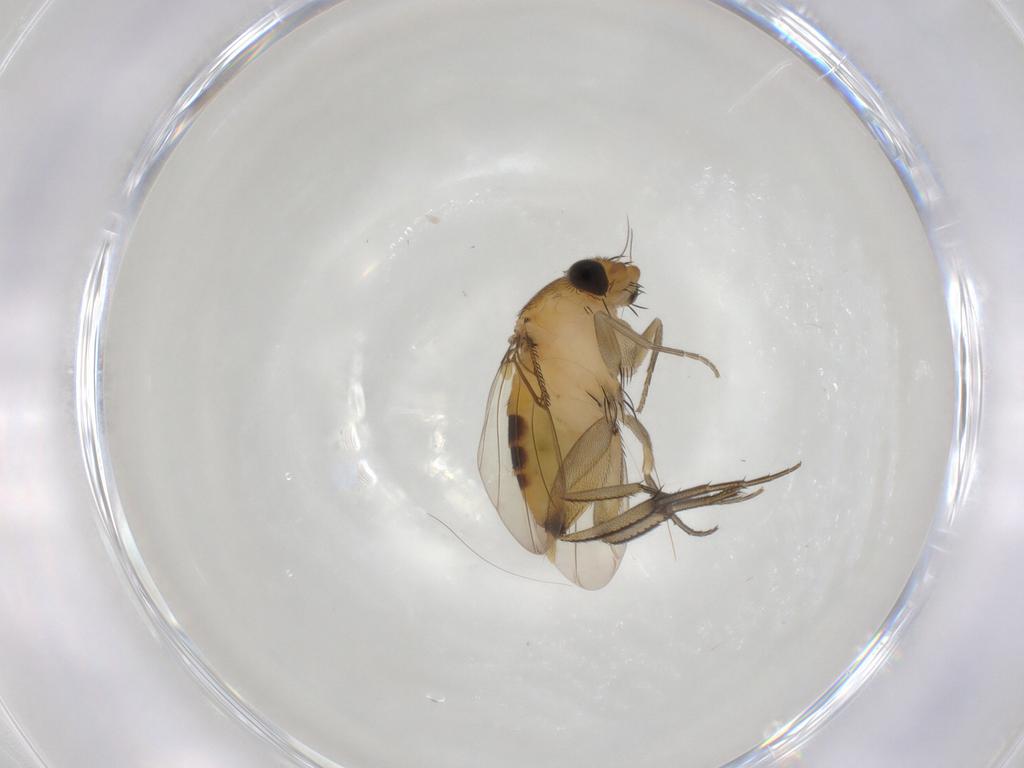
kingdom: Animalia
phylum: Arthropoda
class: Insecta
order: Diptera
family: Phoridae
